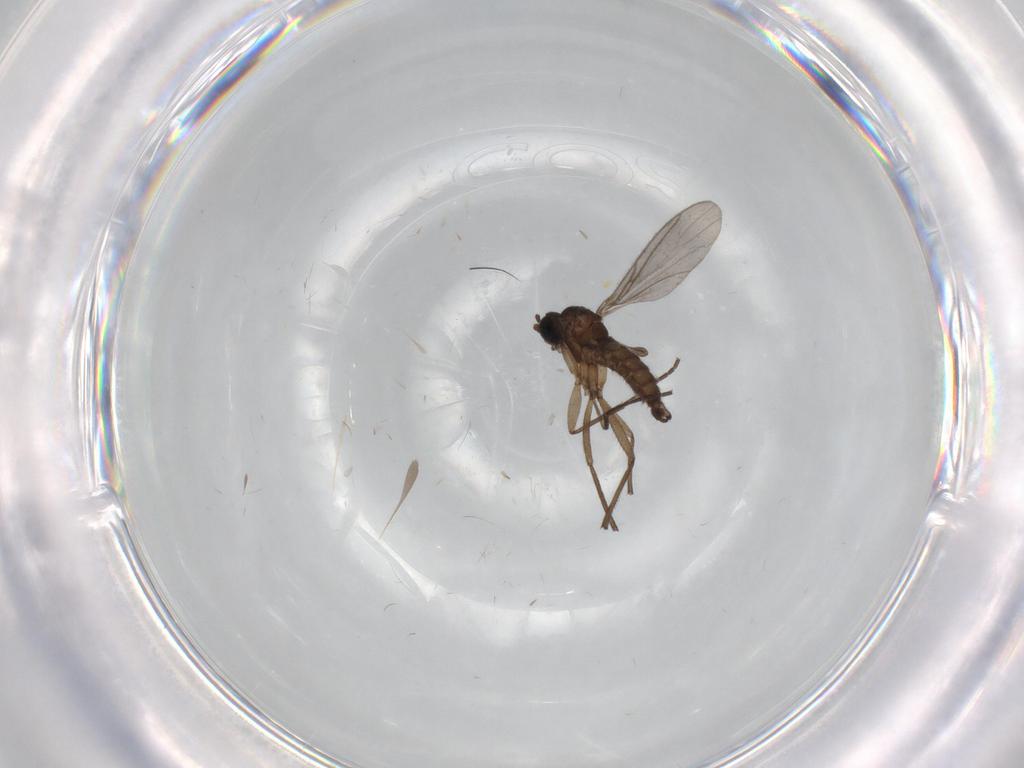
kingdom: Animalia
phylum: Arthropoda
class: Insecta
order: Diptera
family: Sciaridae
